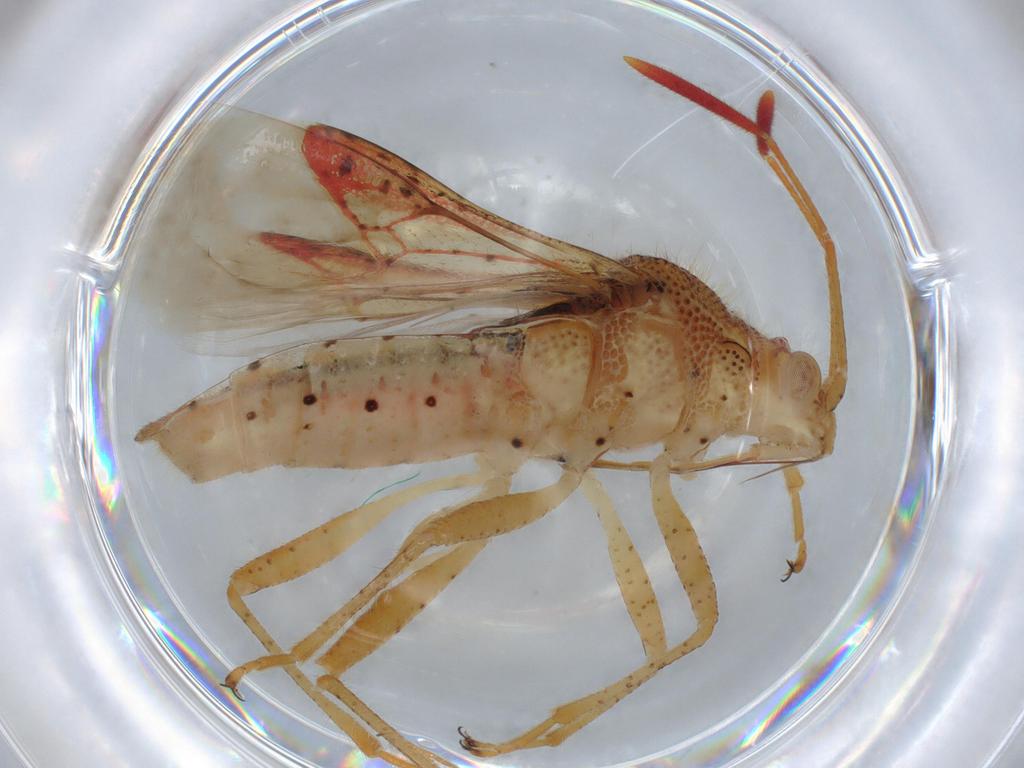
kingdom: Animalia
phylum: Arthropoda
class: Insecta
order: Hemiptera
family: Rhopalidae
